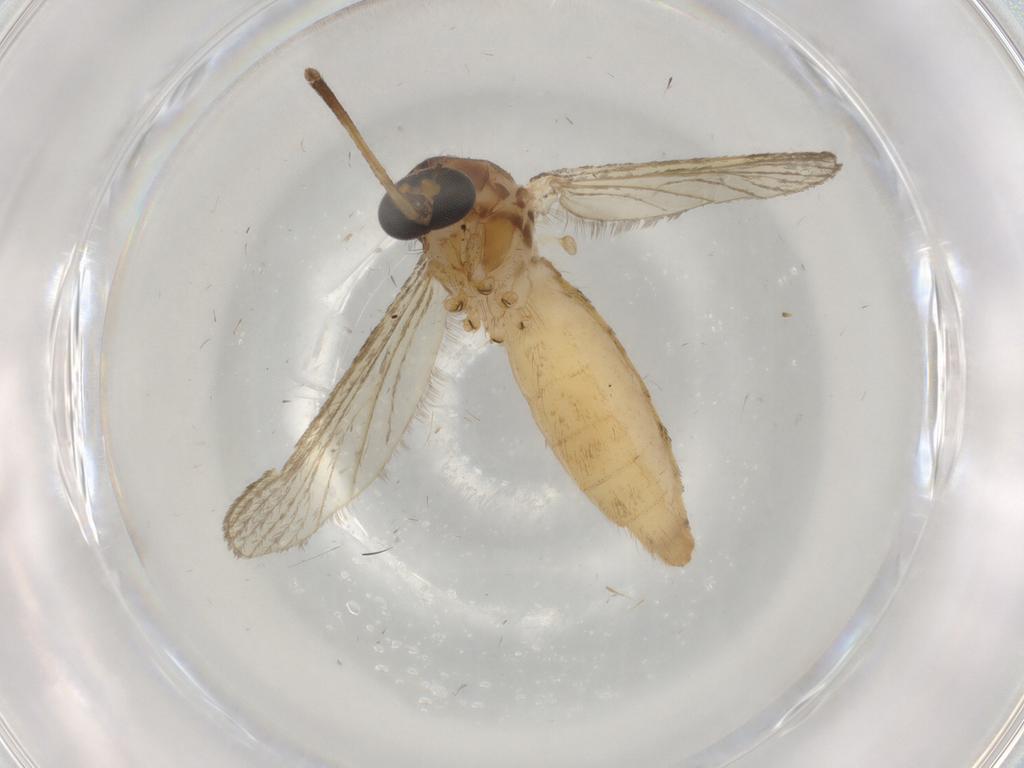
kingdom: Animalia
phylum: Arthropoda
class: Insecta
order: Diptera
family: Culicidae
